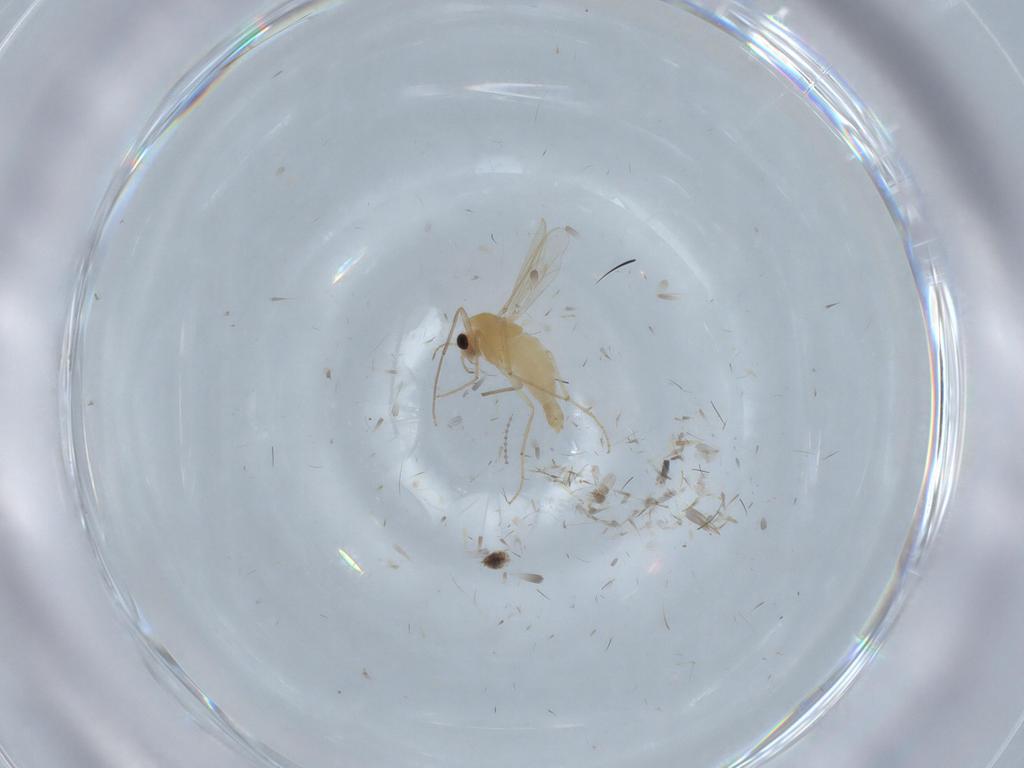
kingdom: Animalia
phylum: Arthropoda
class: Insecta
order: Diptera
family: Chironomidae
